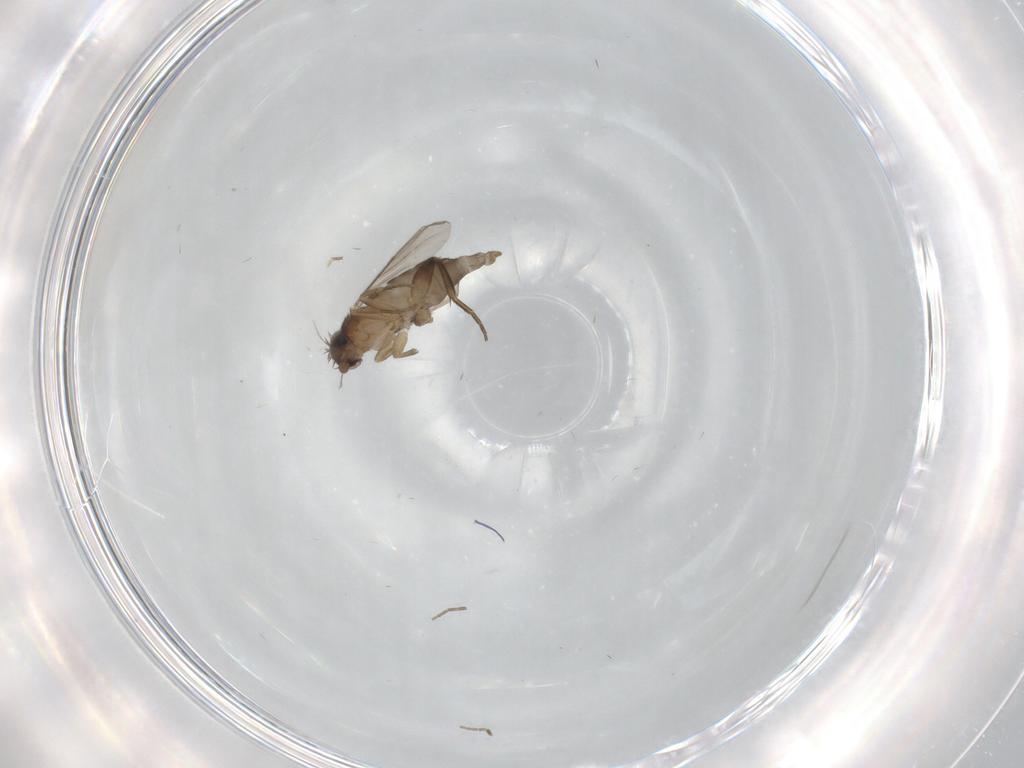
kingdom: Animalia
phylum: Arthropoda
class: Insecta
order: Diptera
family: Phoridae
